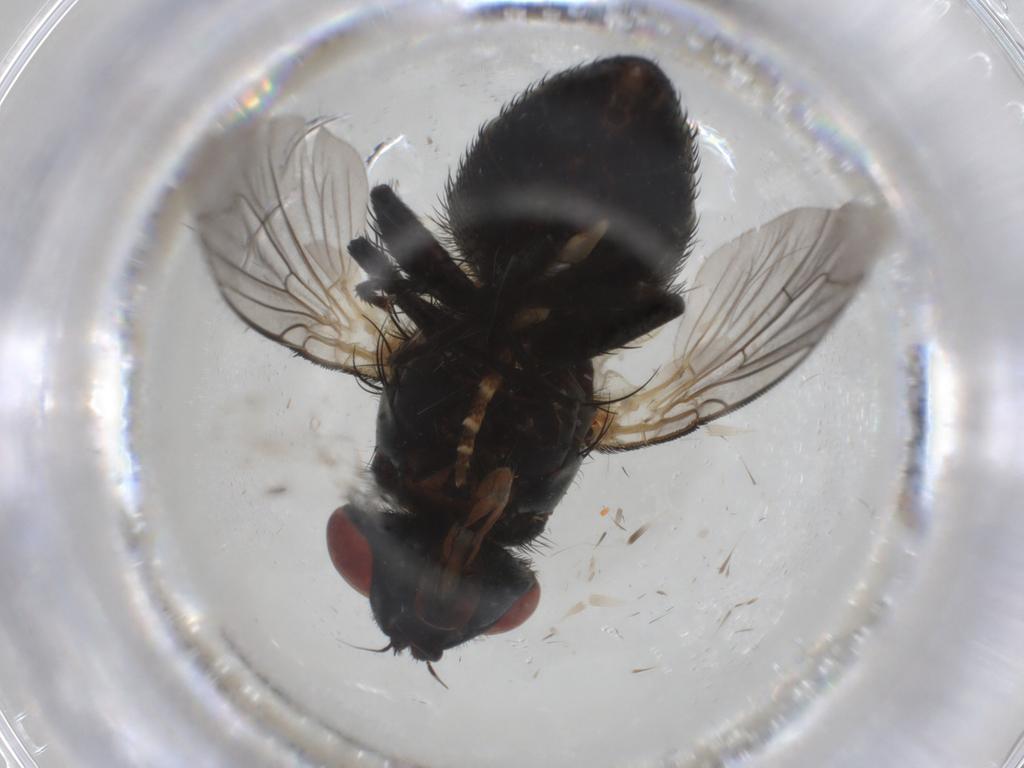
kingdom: Animalia
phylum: Arthropoda
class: Insecta
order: Diptera
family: Sarcophagidae
